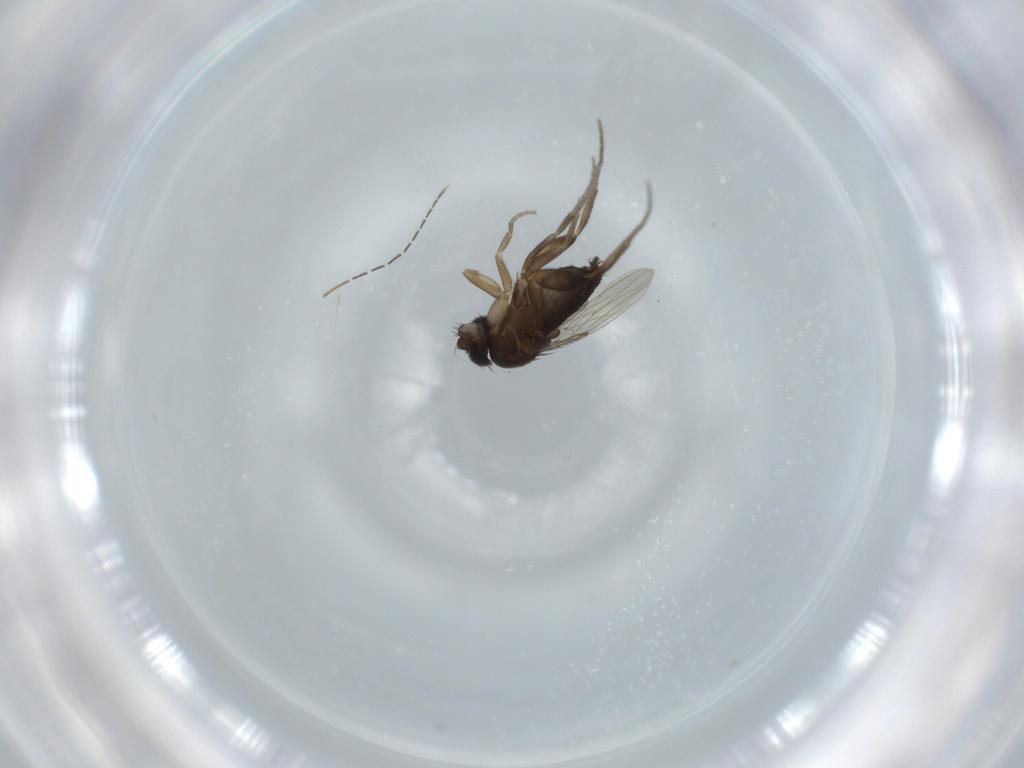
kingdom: Animalia
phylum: Arthropoda
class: Insecta
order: Diptera
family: Phoridae
